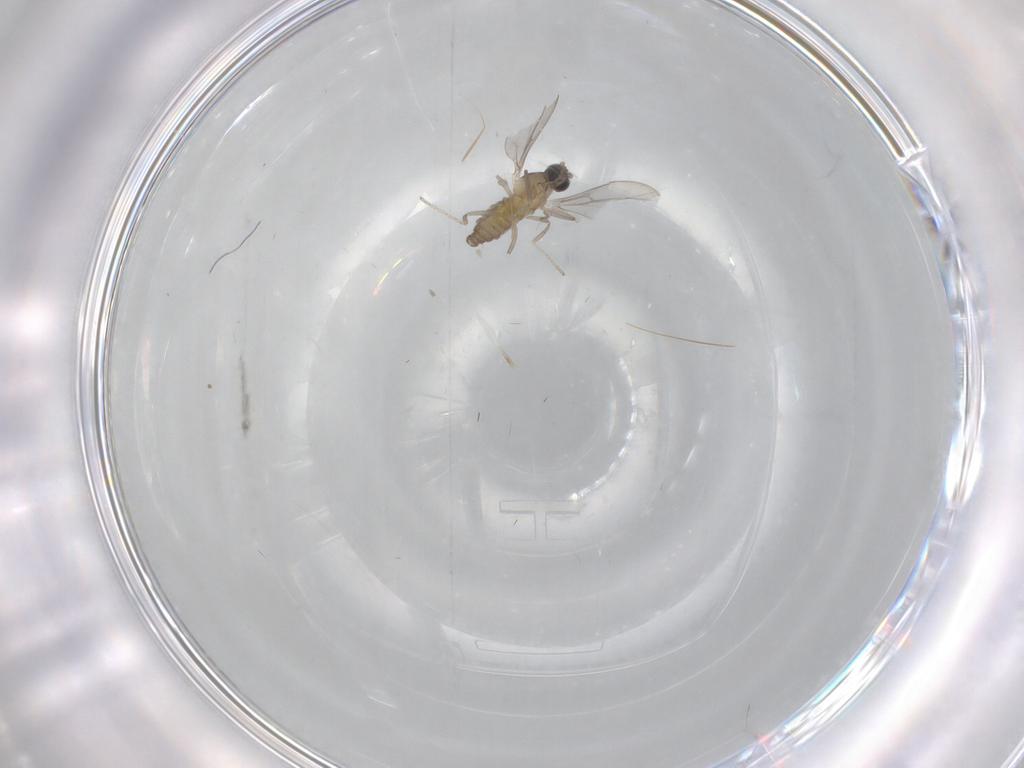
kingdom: Animalia
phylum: Arthropoda
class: Insecta
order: Diptera
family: Cecidomyiidae
